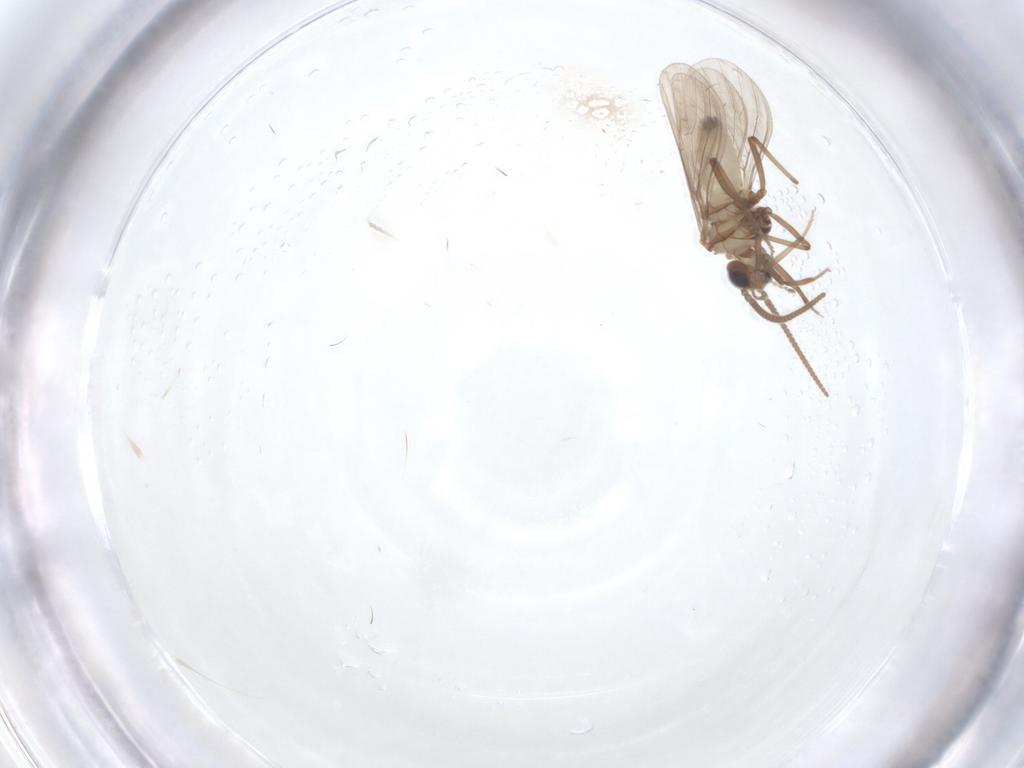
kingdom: Animalia
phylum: Arthropoda
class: Insecta
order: Neuroptera
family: Coniopterygidae
